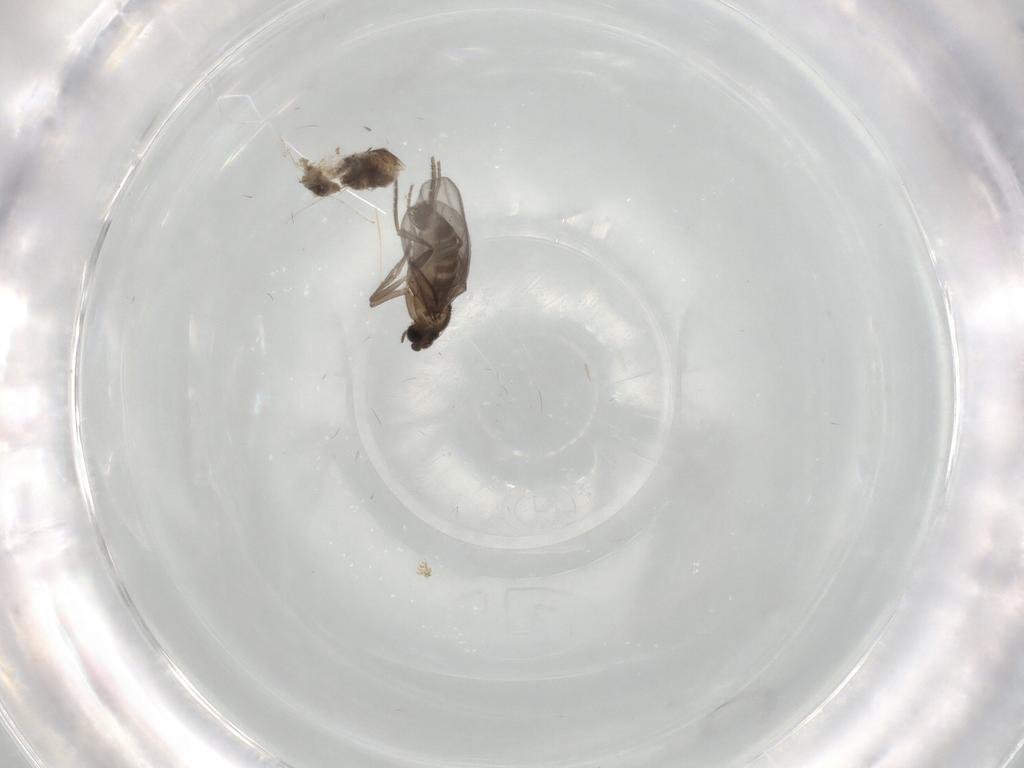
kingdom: Animalia
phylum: Arthropoda
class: Insecta
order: Diptera
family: Phoridae
